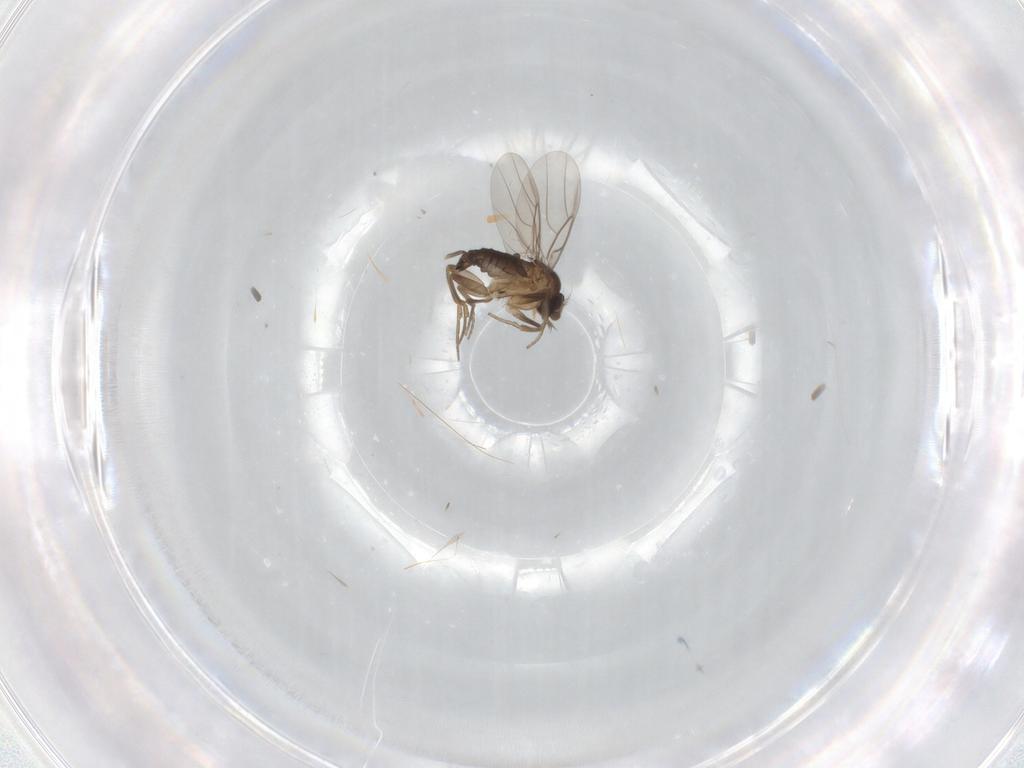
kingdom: Animalia
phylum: Arthropoda
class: Insecta
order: Diptera
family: Phoridae
